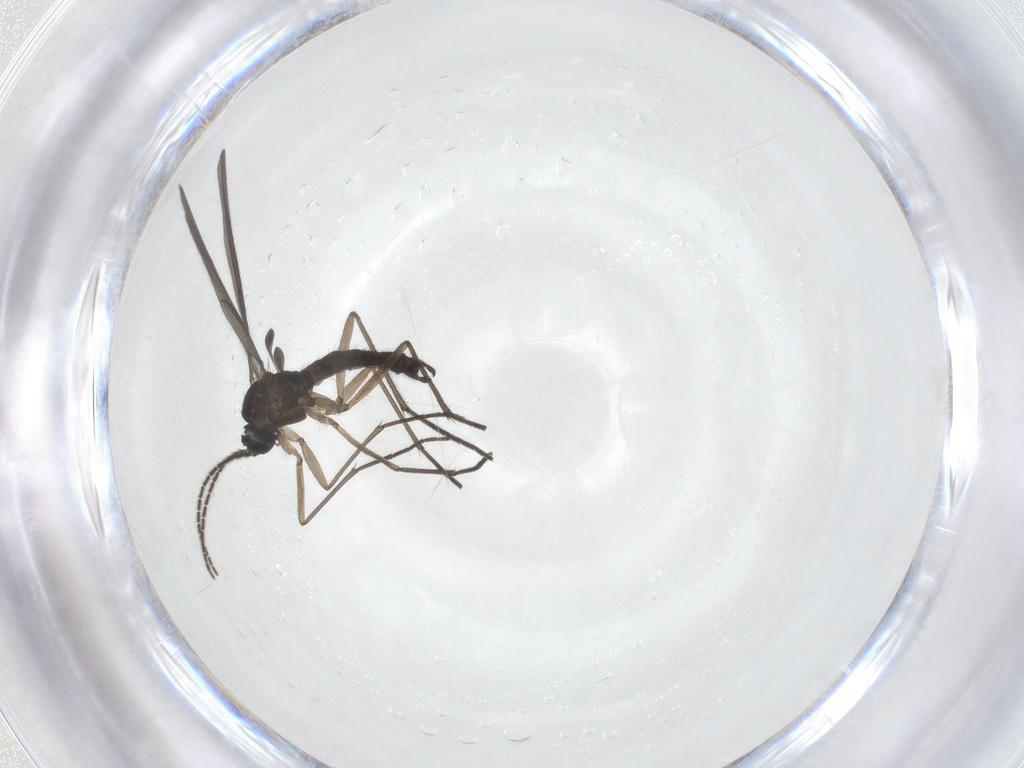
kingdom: Animalia
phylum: Arthropoda
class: Insecta
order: Diptera
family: Sciaridae
